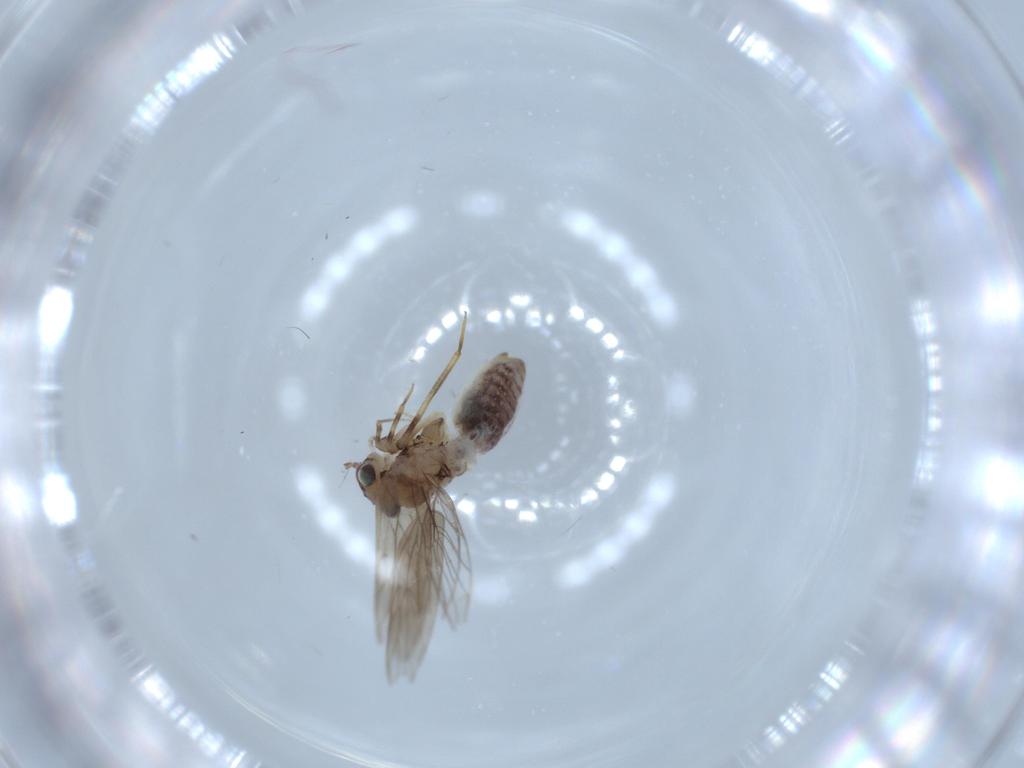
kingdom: Animalia
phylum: Arthropoda
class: Insecta
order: Psocodea
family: Lepidopsocidae
